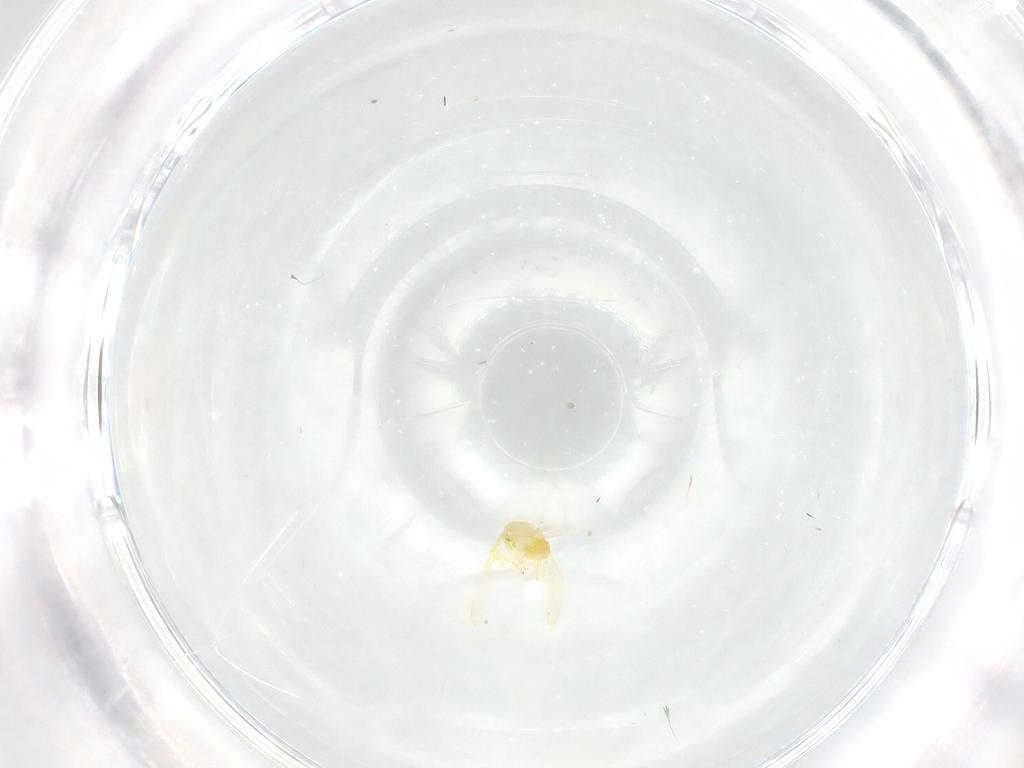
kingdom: Animalia
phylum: Arthropoda
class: Insecta
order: Hemiptera
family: Aleyrodidae
